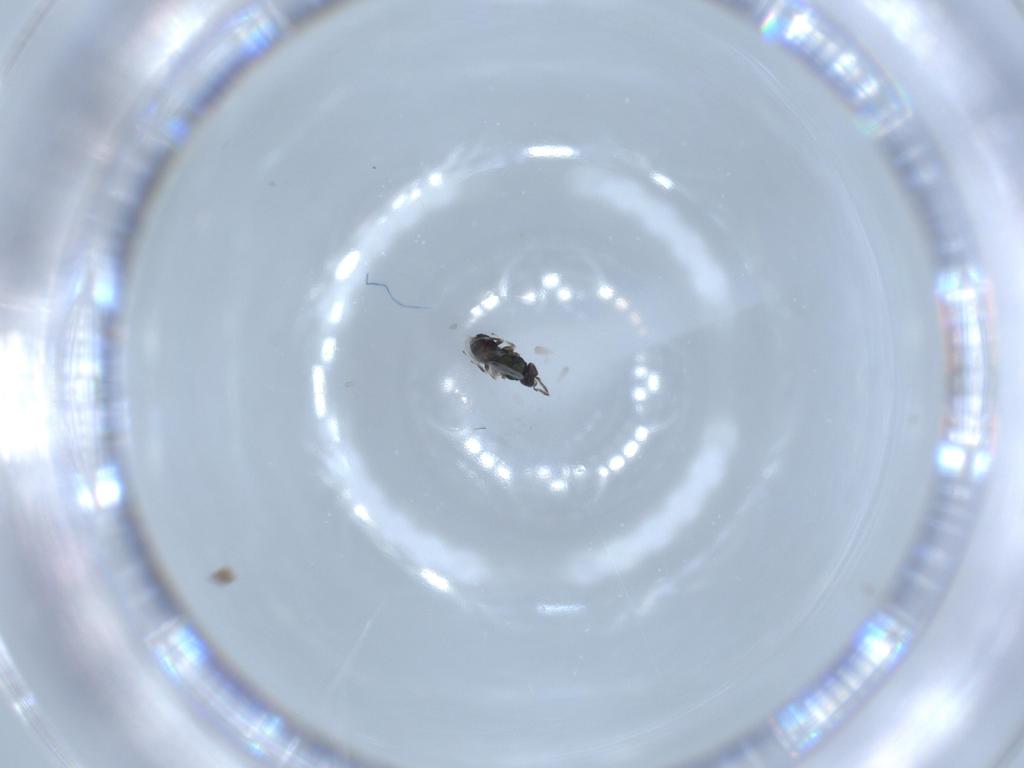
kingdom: Animalia
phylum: Arthropoda
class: Insecta
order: Hymenoptera
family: Eulophidae
